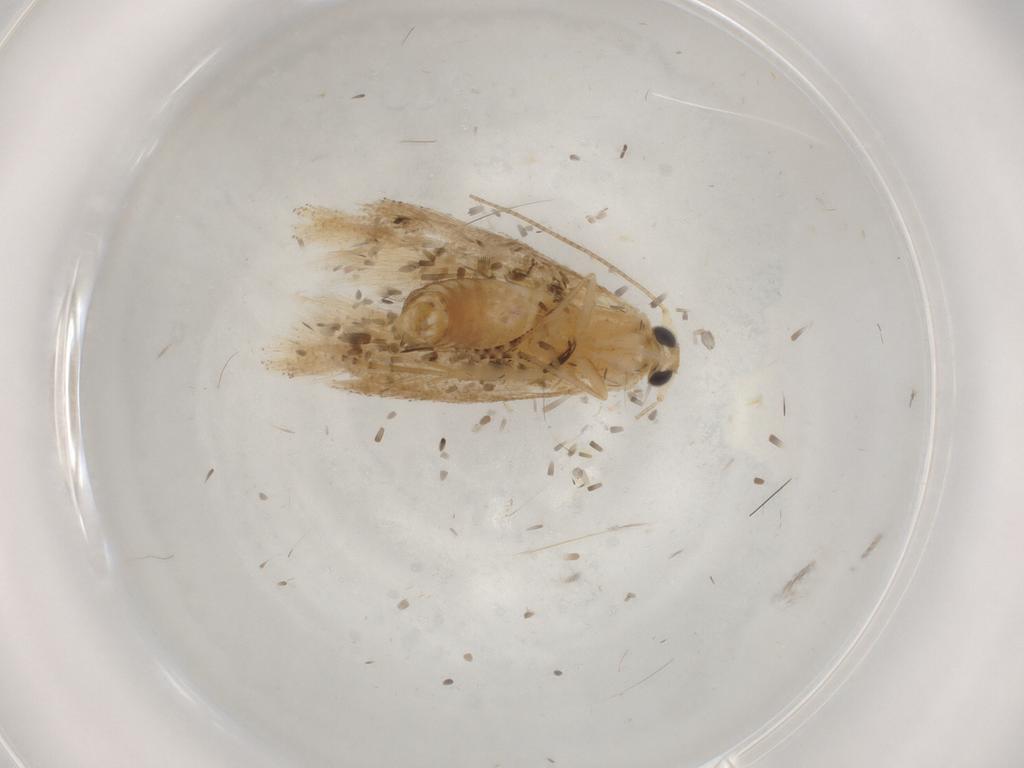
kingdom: Animalia
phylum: Arthropoda
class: Insecta
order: Lepidoptera
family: Bucculatricidae
